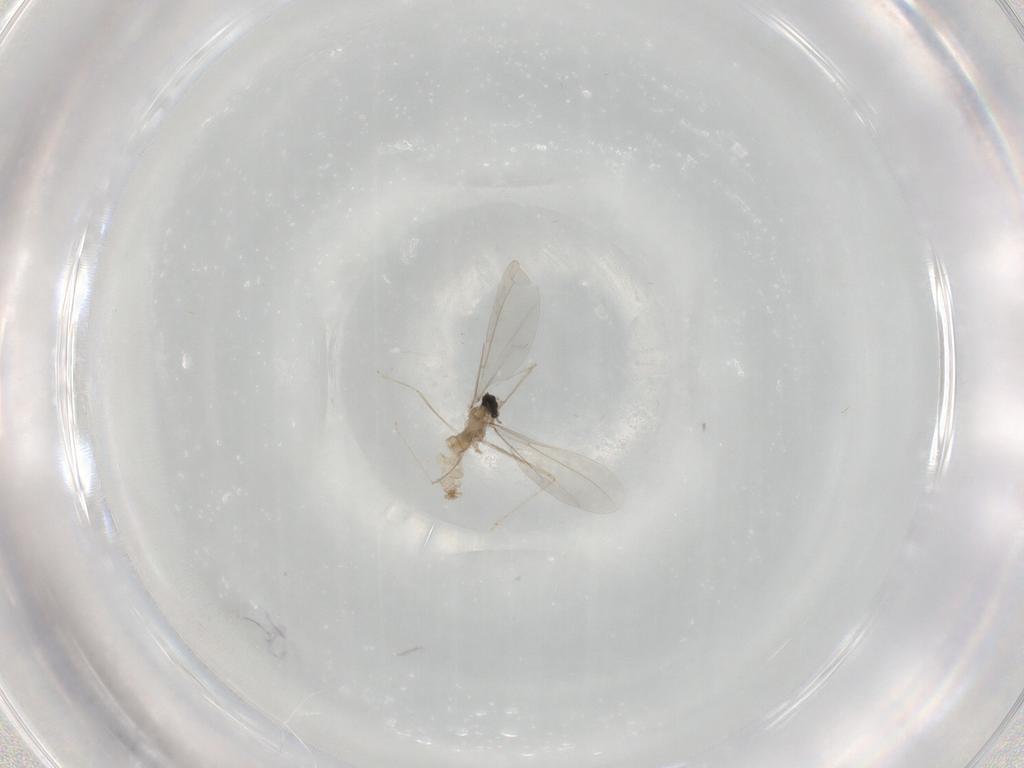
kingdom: Animalia
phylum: Arthropoda
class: Insecta
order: Diptera
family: Cecidomyiidae
